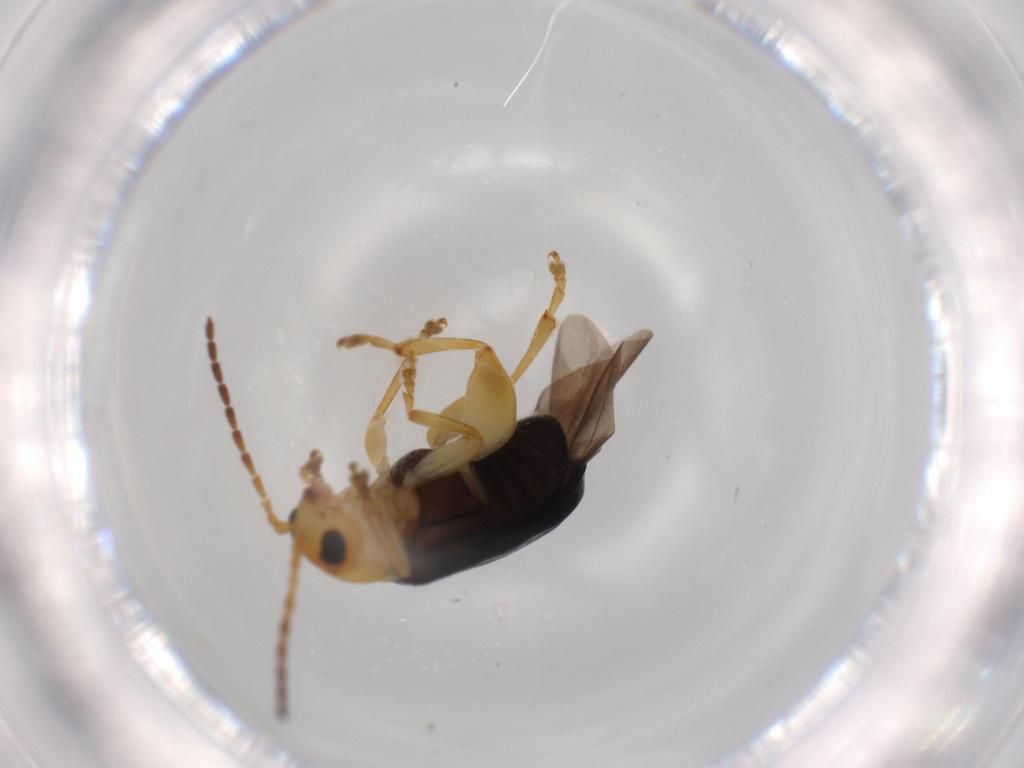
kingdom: Animalia
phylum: Arthropoda
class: Insecta
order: Coleoptera
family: Chrysomelidae
